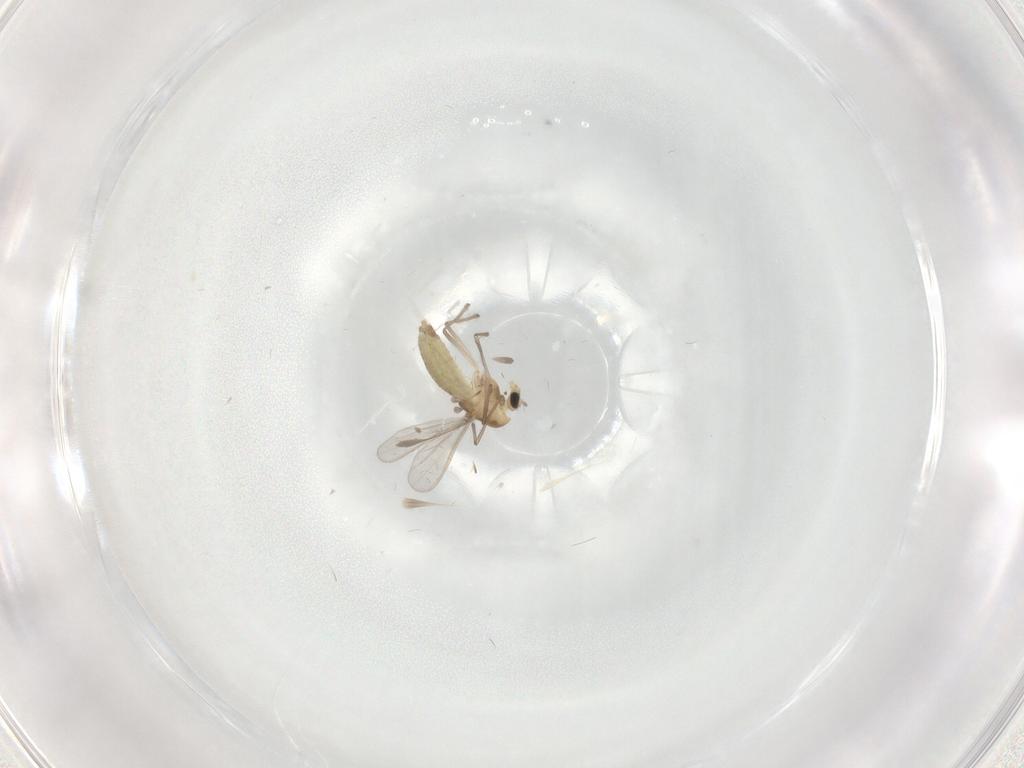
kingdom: Animalia
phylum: Arthropoda
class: Insecta
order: Diptera
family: Chironomidae
